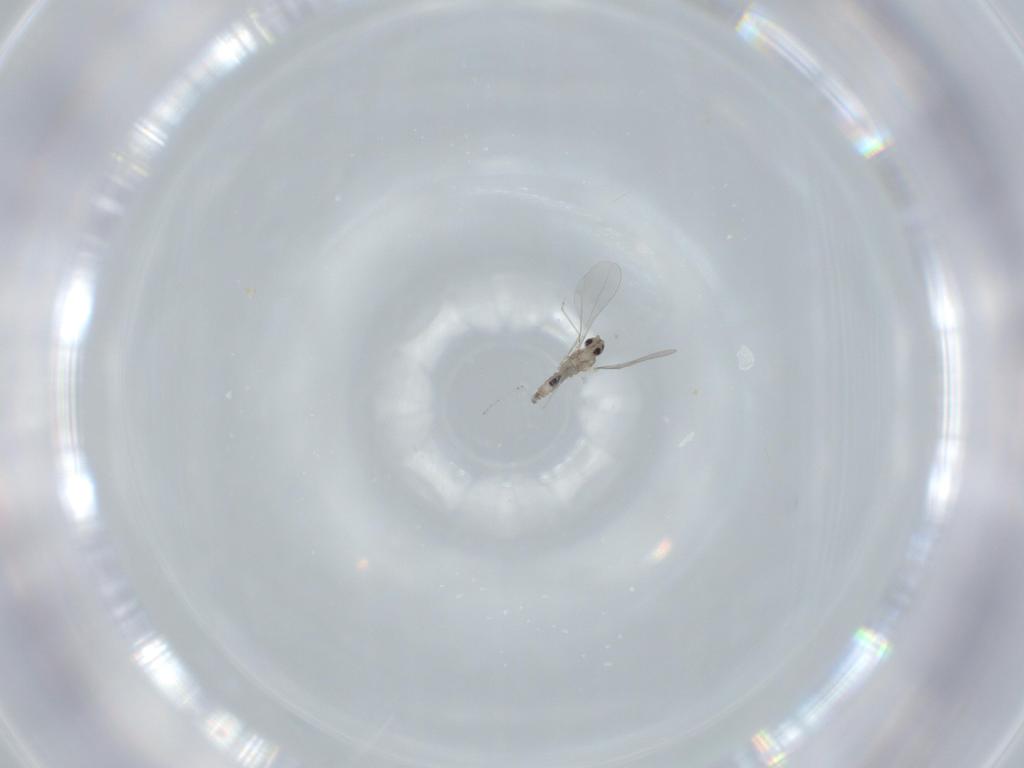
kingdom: Animalia
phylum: Arthropoda
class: Insecta
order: Diptera
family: Cecidomyiidae
